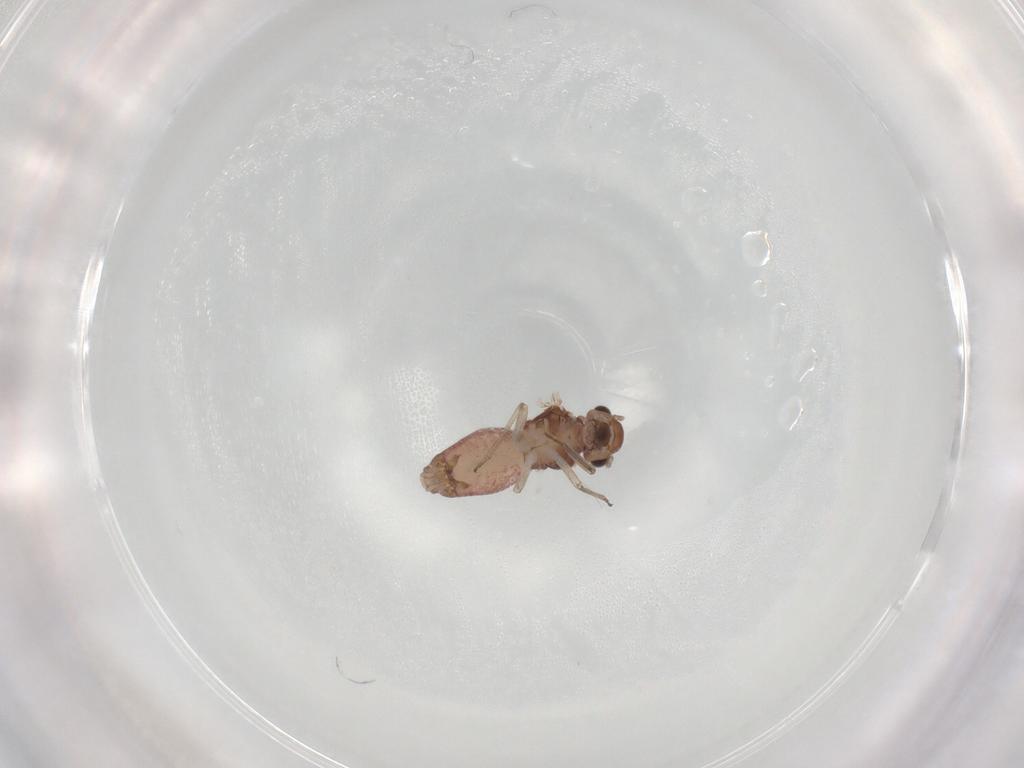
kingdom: Animalia
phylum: Arthropoda
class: Insecta
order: Psocodea
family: Peripsocidae
